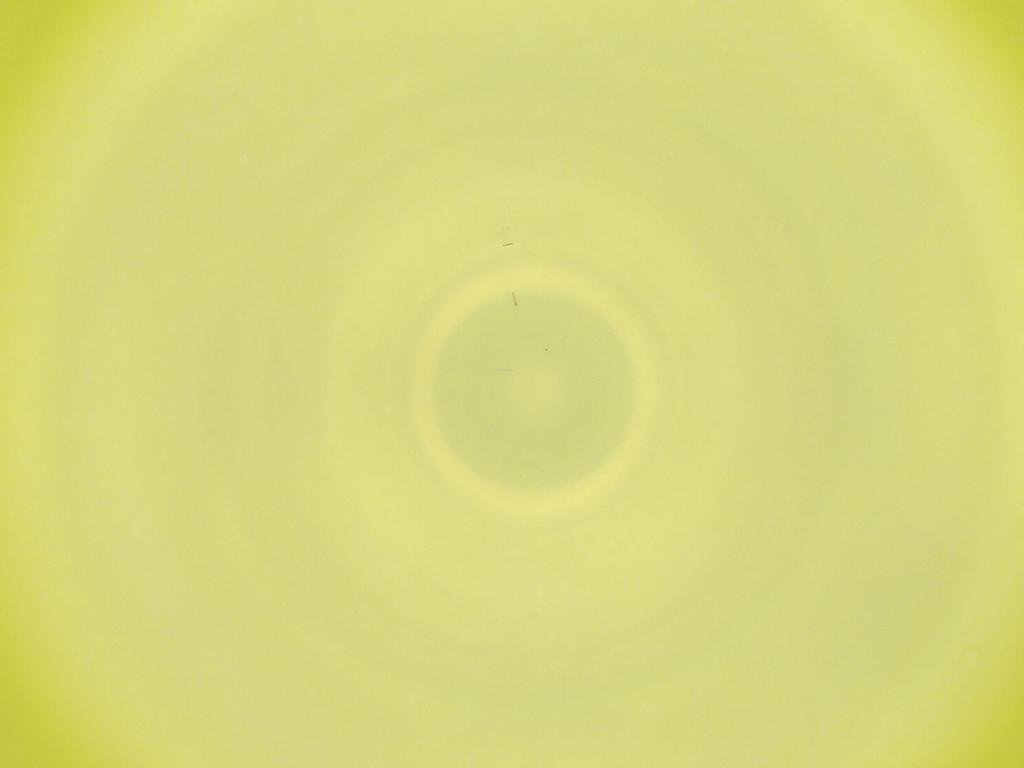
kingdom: Animalia
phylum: Arthropoda
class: Insecta
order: Diptera
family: Cecidomyiidae
